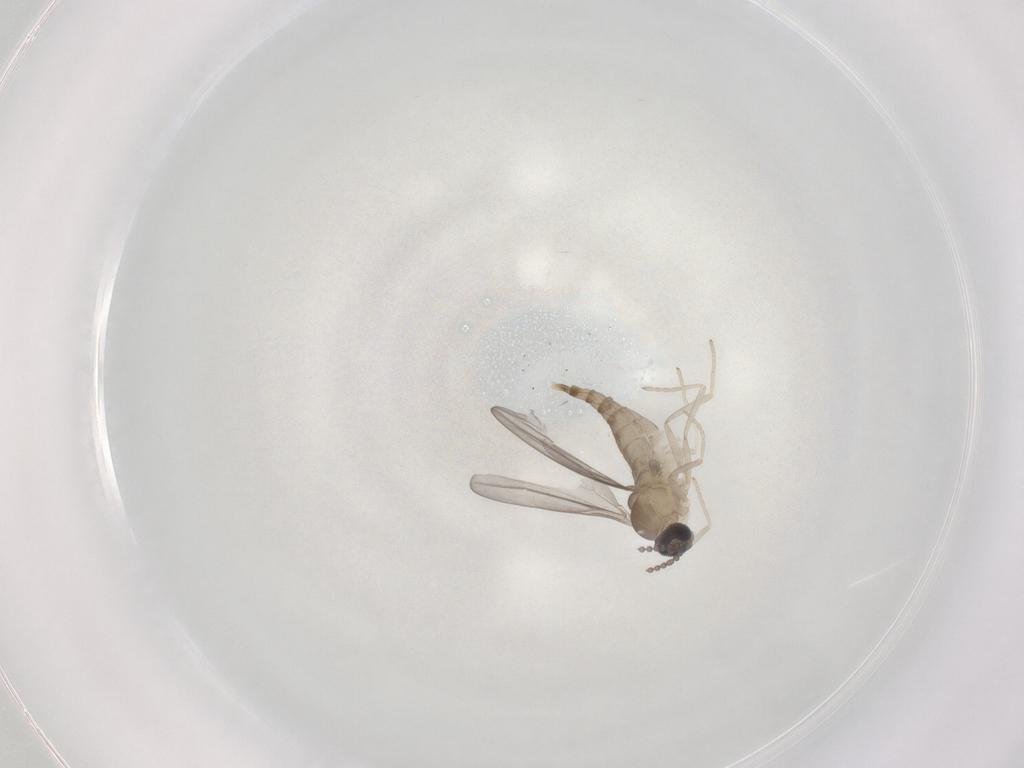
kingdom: Animalia
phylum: Arthropoda
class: Insecta
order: Diptera
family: Cecidomyiidae
